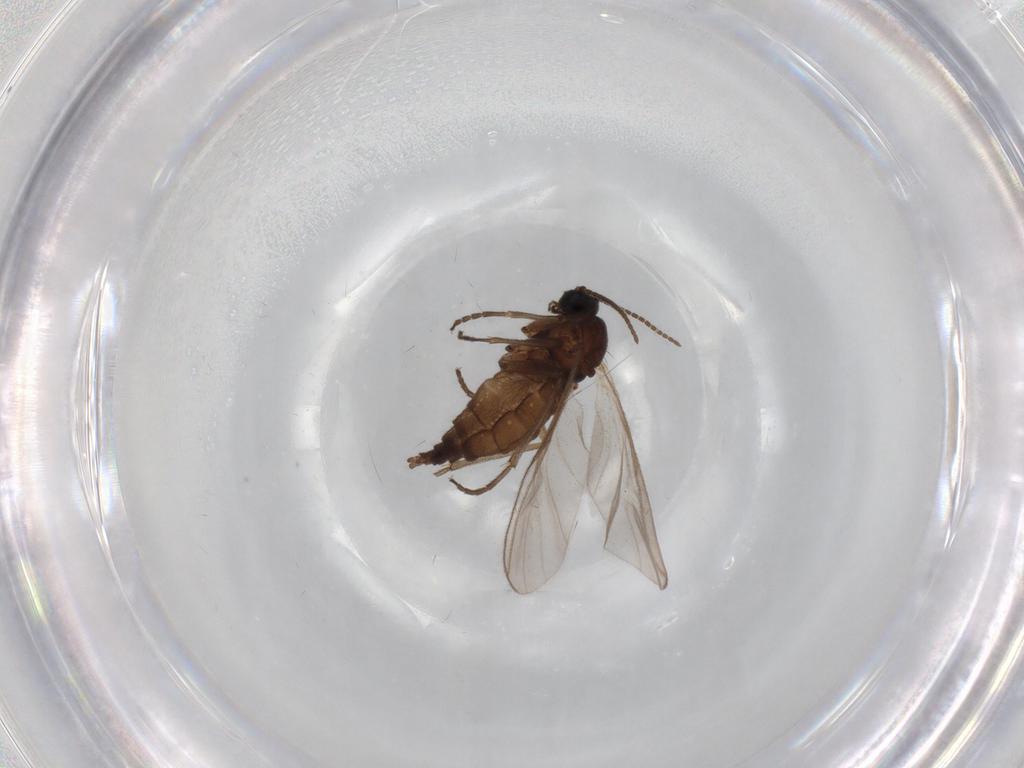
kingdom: Animalia
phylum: Arthropoda
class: Insecta
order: Diptera
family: Sciaridae
